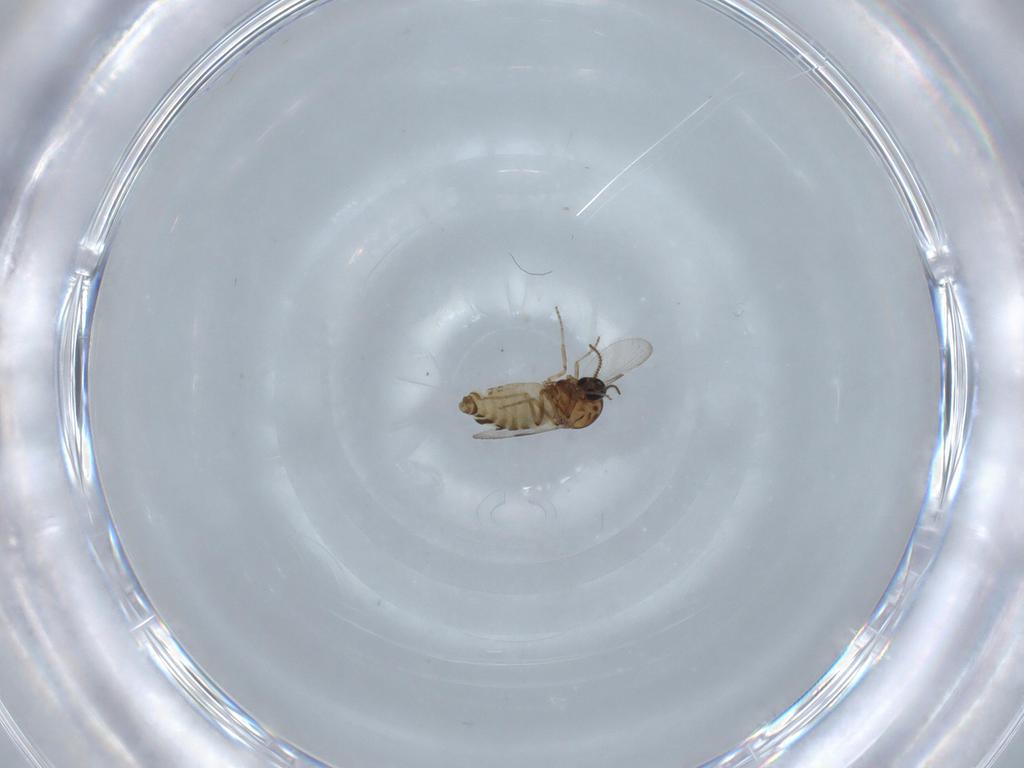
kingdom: Animalia
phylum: Arthropoda
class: Insecta
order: Diptera
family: Ceratopogonidae
